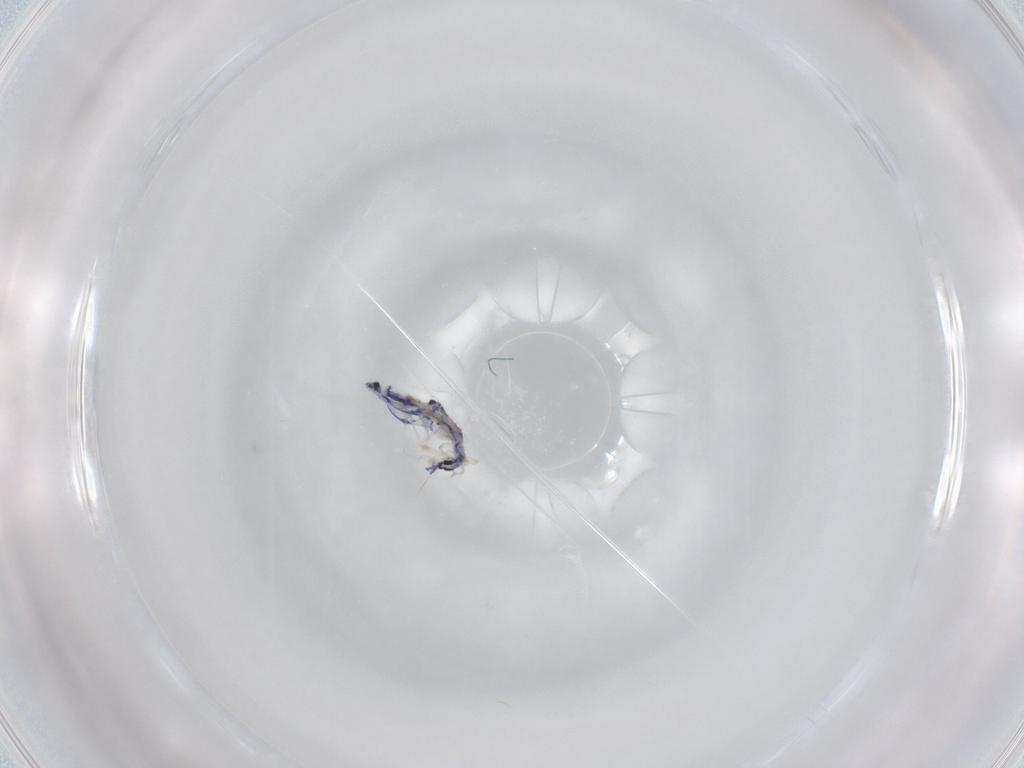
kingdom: Animalia
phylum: Arthropoda
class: Collembola
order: Entomobryomorpha
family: Entomobryidae
